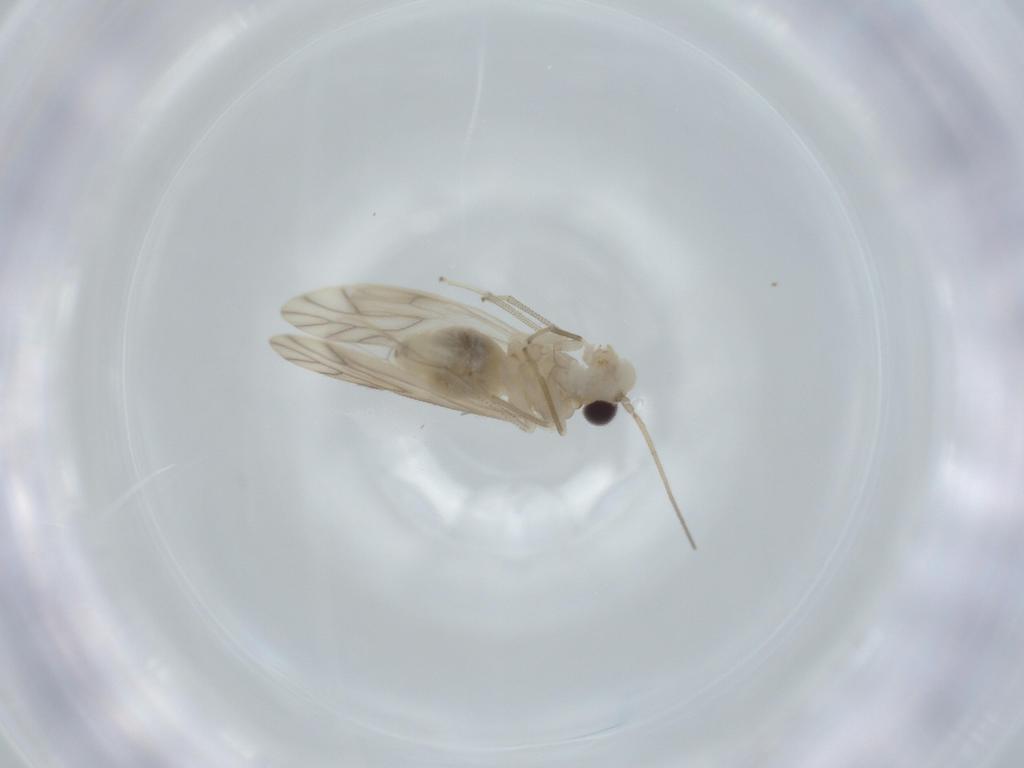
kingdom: Animalia
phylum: Arthropoda
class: Insecta
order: Psocodea
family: Caeciliusidae
